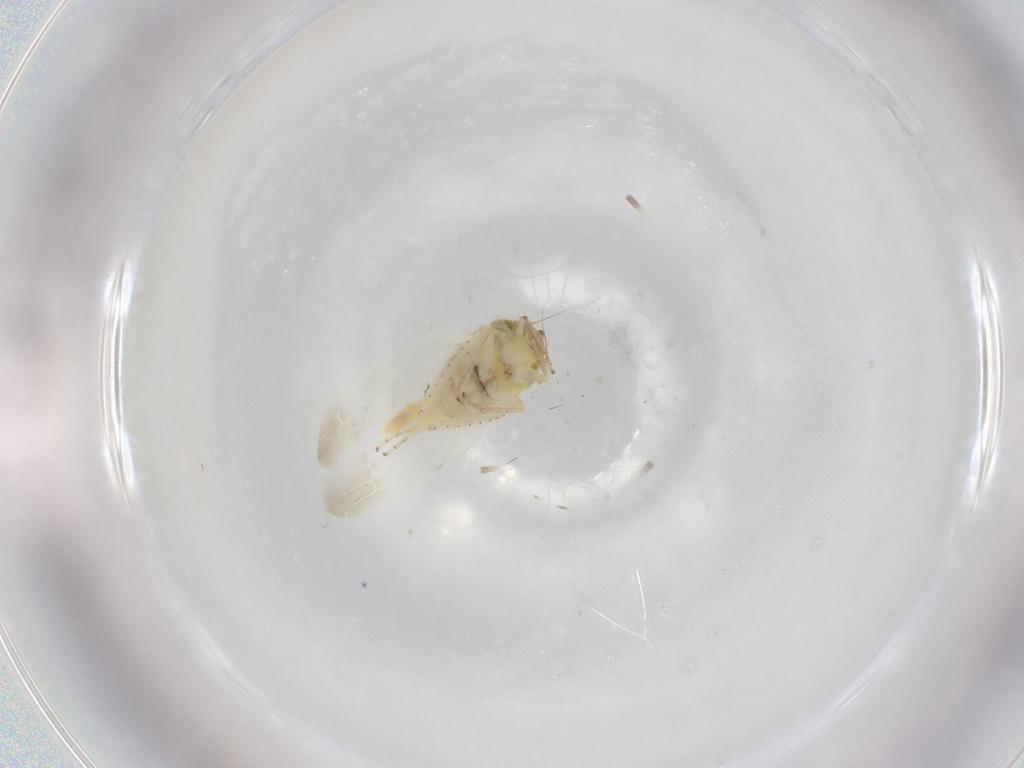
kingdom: Animalia
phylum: Arthropoda
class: Insecta
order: Hemiptera
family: Cicadellidae
